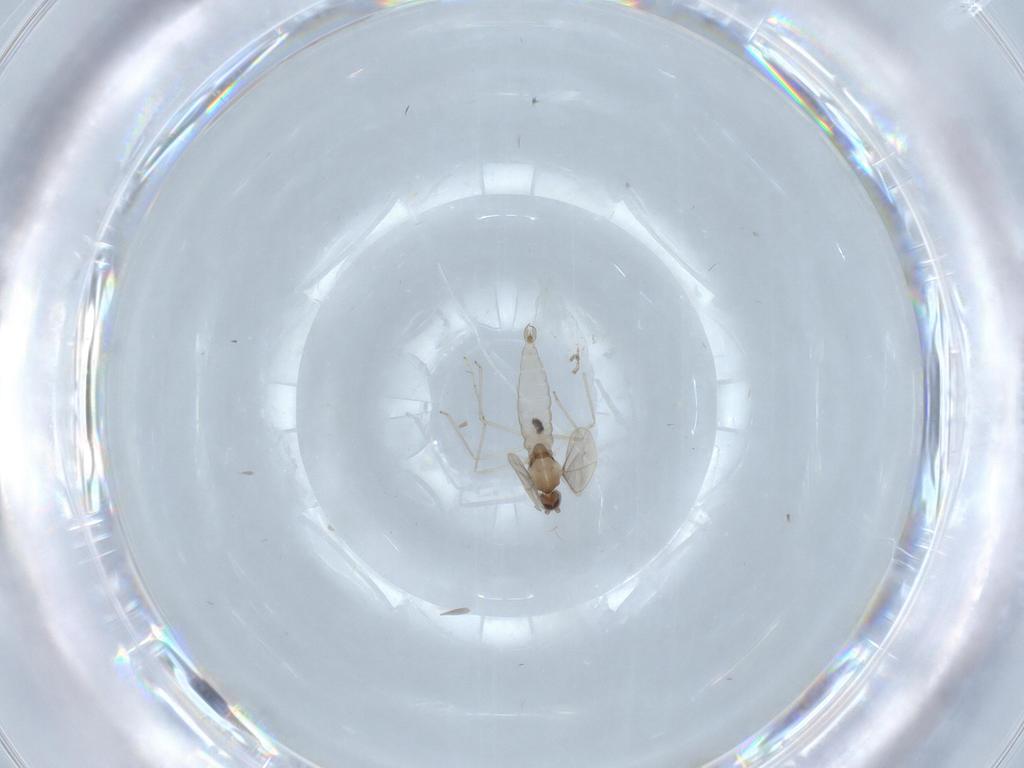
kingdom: Animalia
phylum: Arthropoda
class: Insecta
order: Diptera
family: Cecidomyiidae
